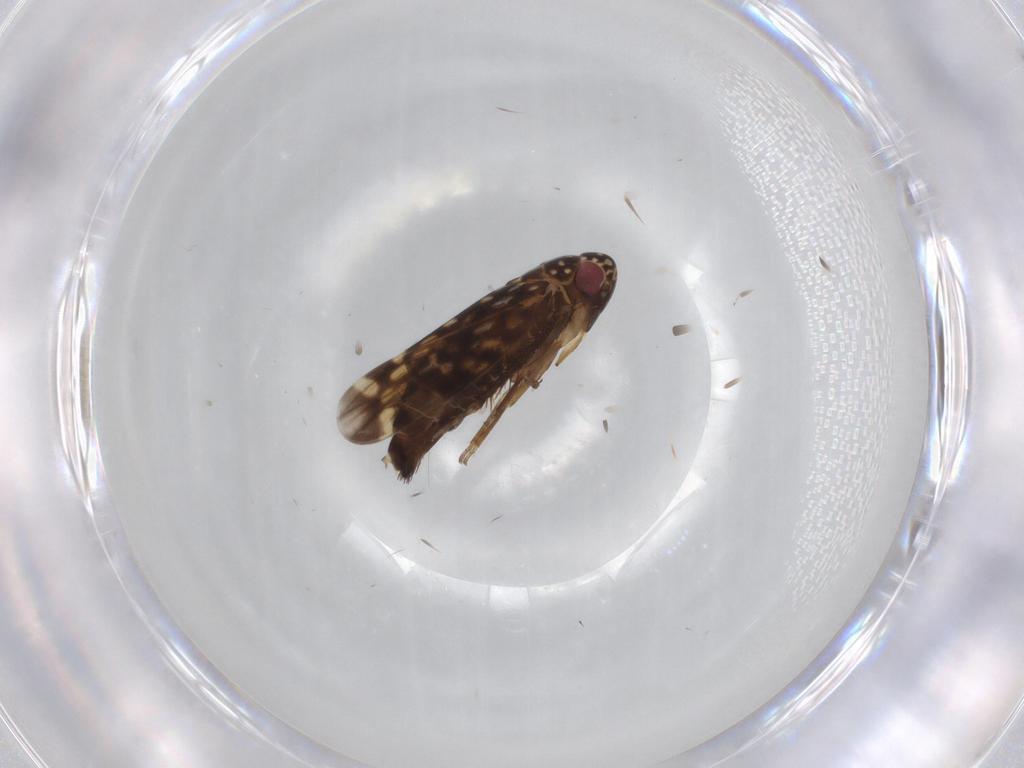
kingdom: Animalia
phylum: Arthropoda
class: Insecta
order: Hemiptera
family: Cicadellidae
